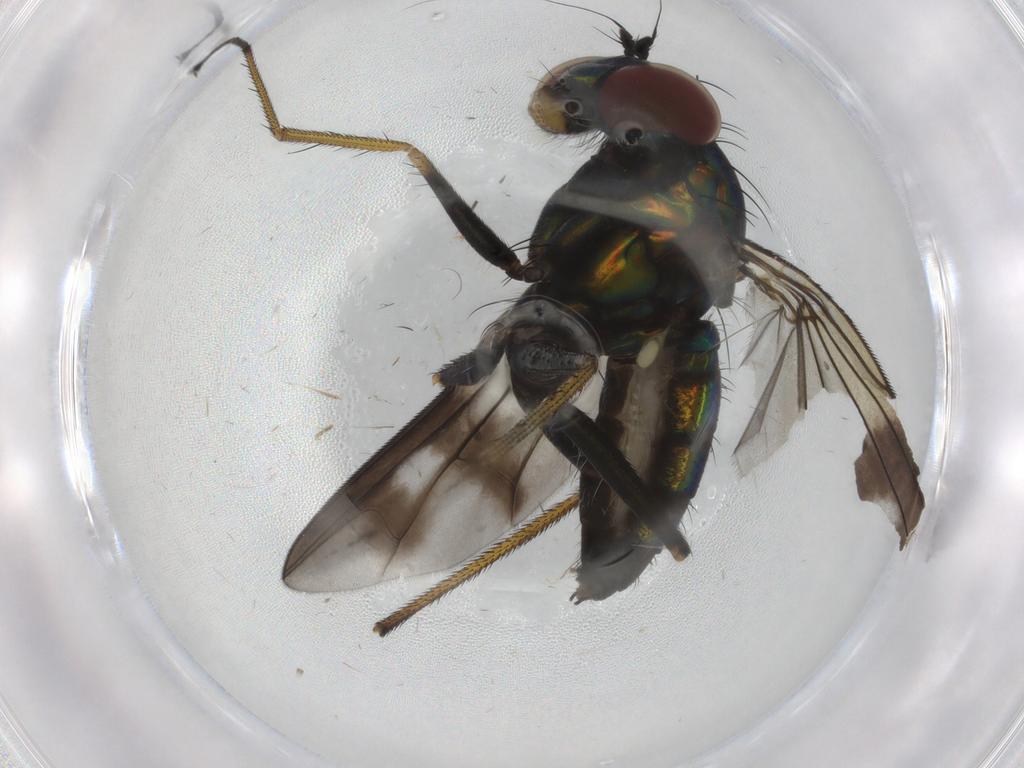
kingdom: Animalia
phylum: Arthropoda
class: Insecta
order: Diptera
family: Dolichopodidae
